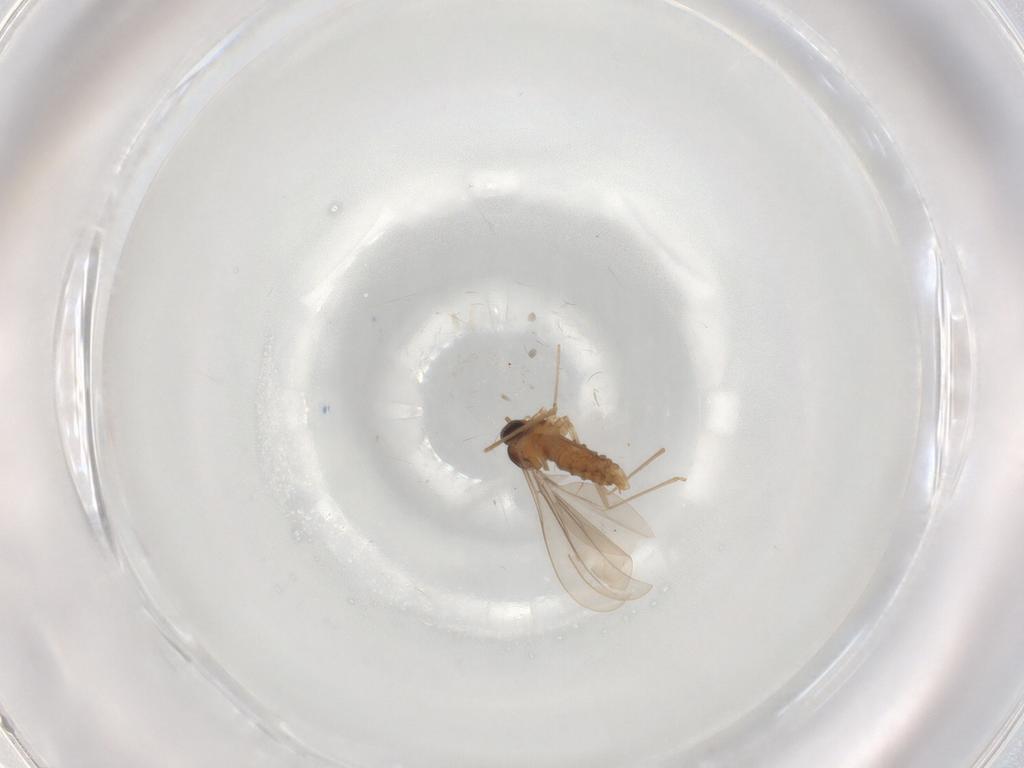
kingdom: Animalia
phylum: Arthropoda
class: Insecta
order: Diptera
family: Cecidomyiidae
